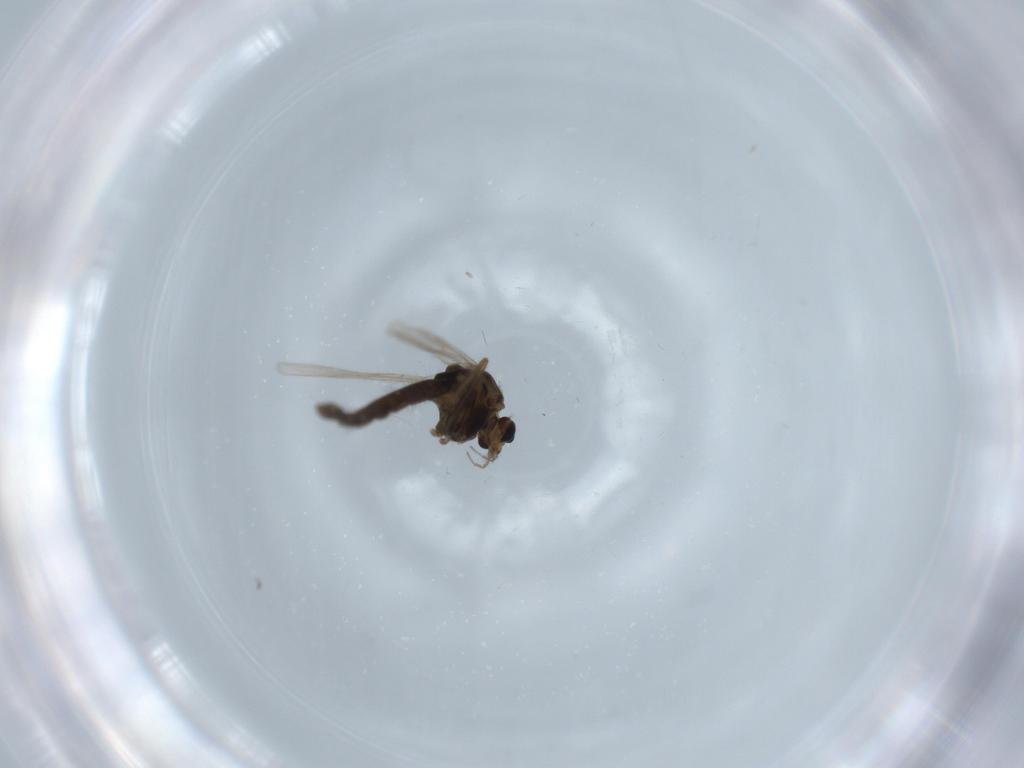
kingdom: Animalia
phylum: Arthropoda
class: Insecta
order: Diptera
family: Chironomidae
